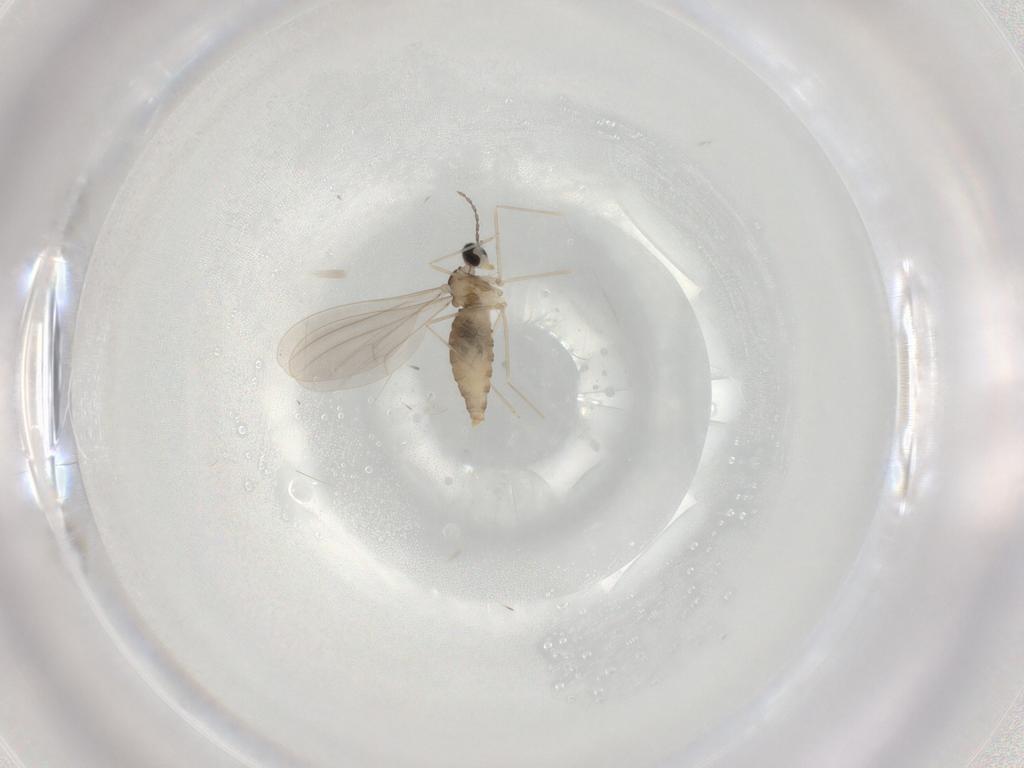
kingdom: Animalia
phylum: Arthropoda
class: Insecta
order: Diptera
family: Cecidomyiidae
